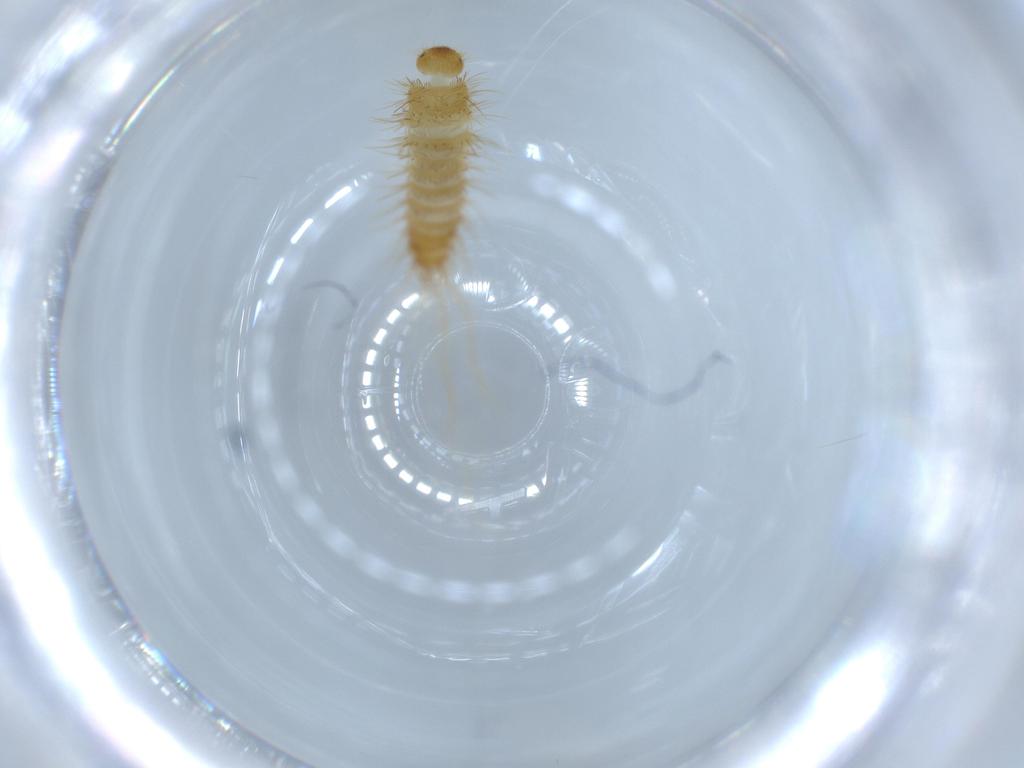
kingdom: Animalia
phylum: Arthropoda
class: Insecta
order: Coleoptera
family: Dermestidae
